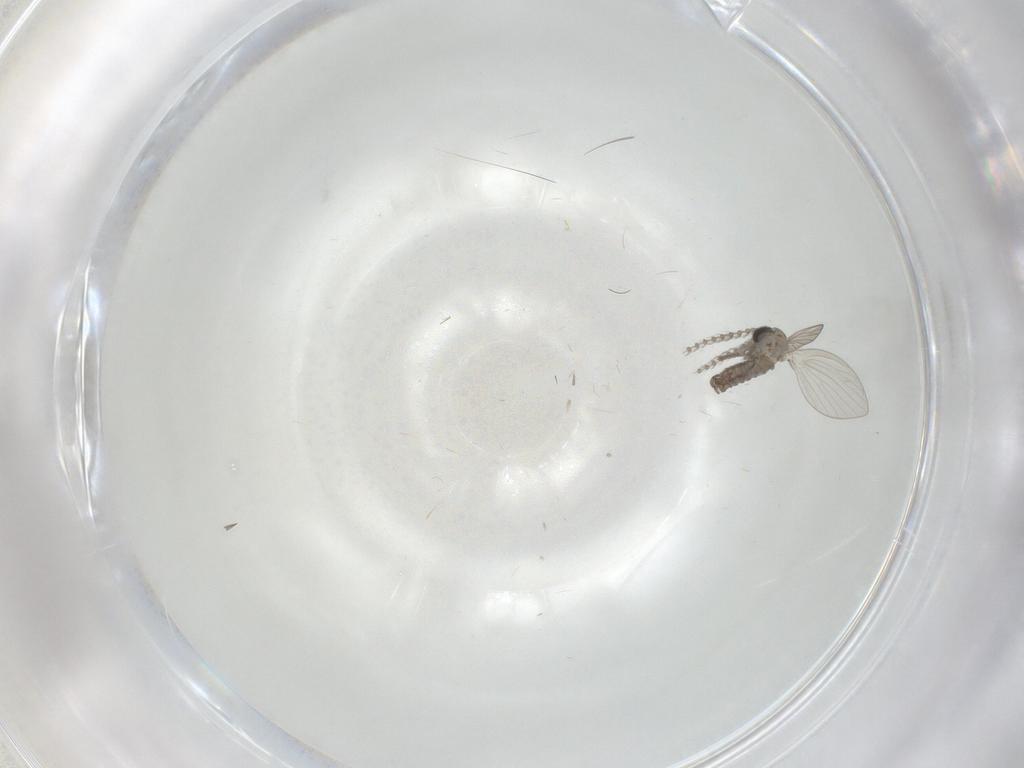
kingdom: Animalia
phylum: Arthropoda
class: Insecta
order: Diptera
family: Psychodidae
